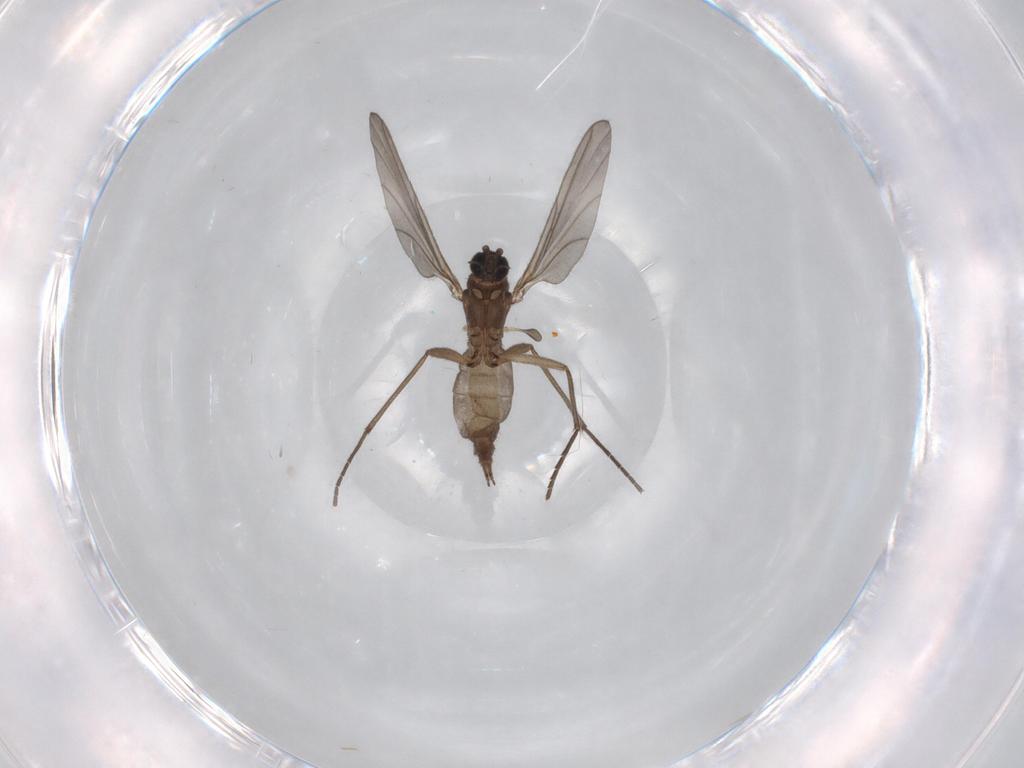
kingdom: Animalia
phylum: Arthropoda
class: Insecta
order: Diptera
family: Sciaridae
